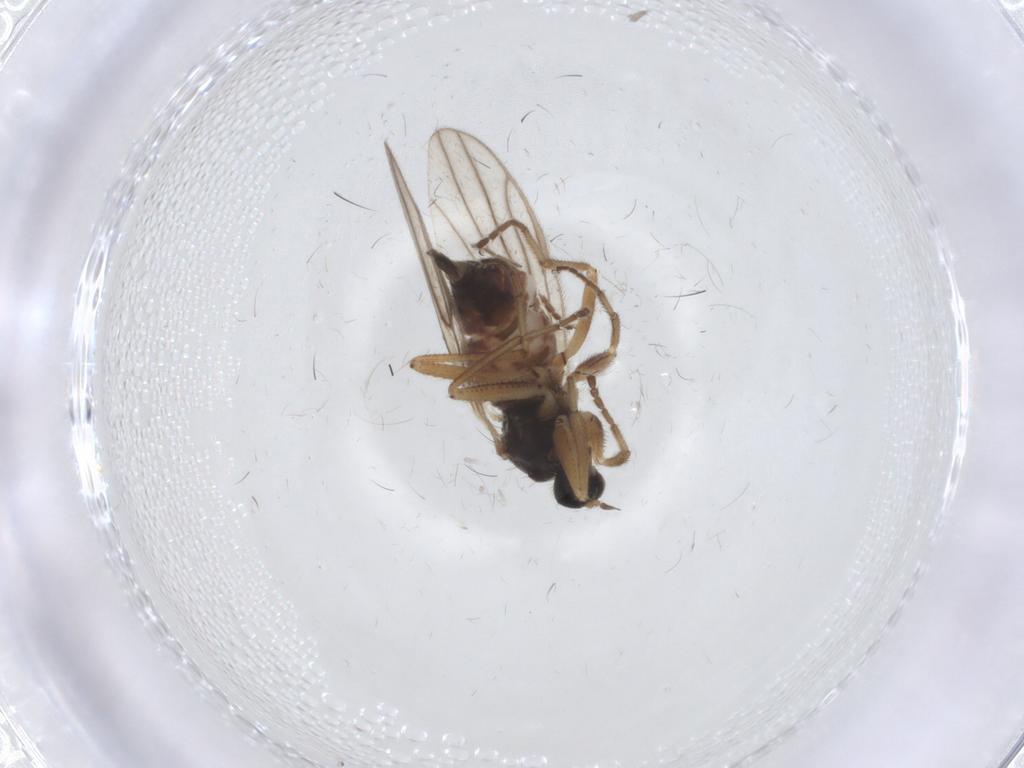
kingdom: Animalia
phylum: Arthropoda
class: Insecta
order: Diptera
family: Hybotidae
